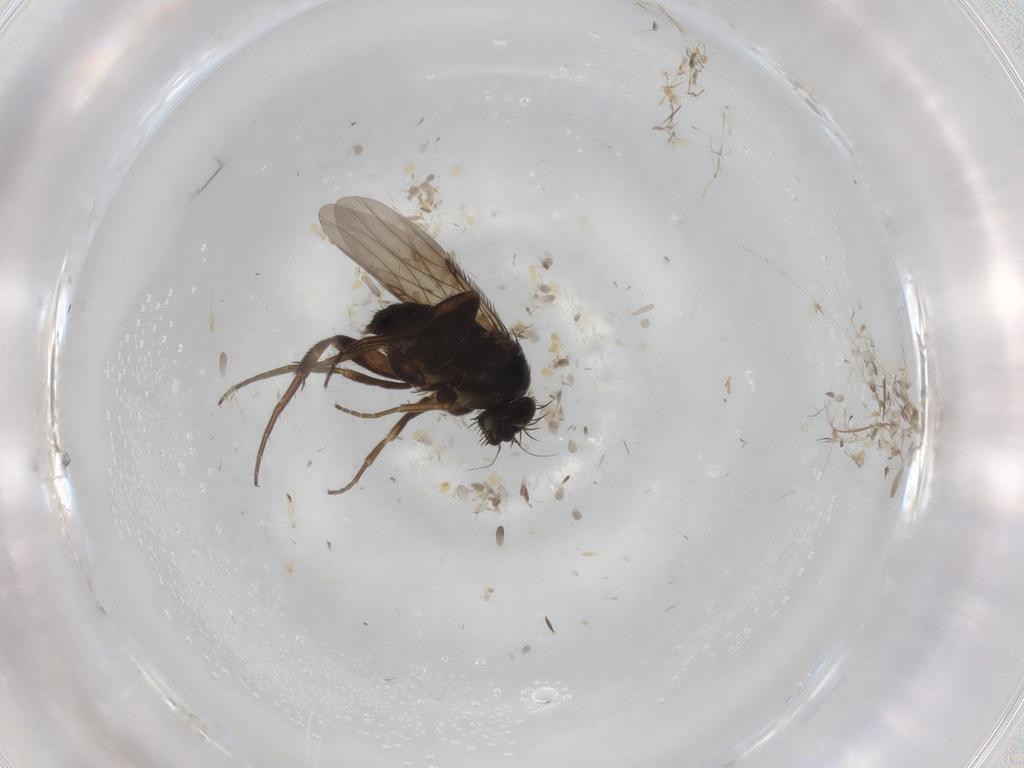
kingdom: Animalia
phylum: Arthropoda
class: Insecta
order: Diptera
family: Phoridae
